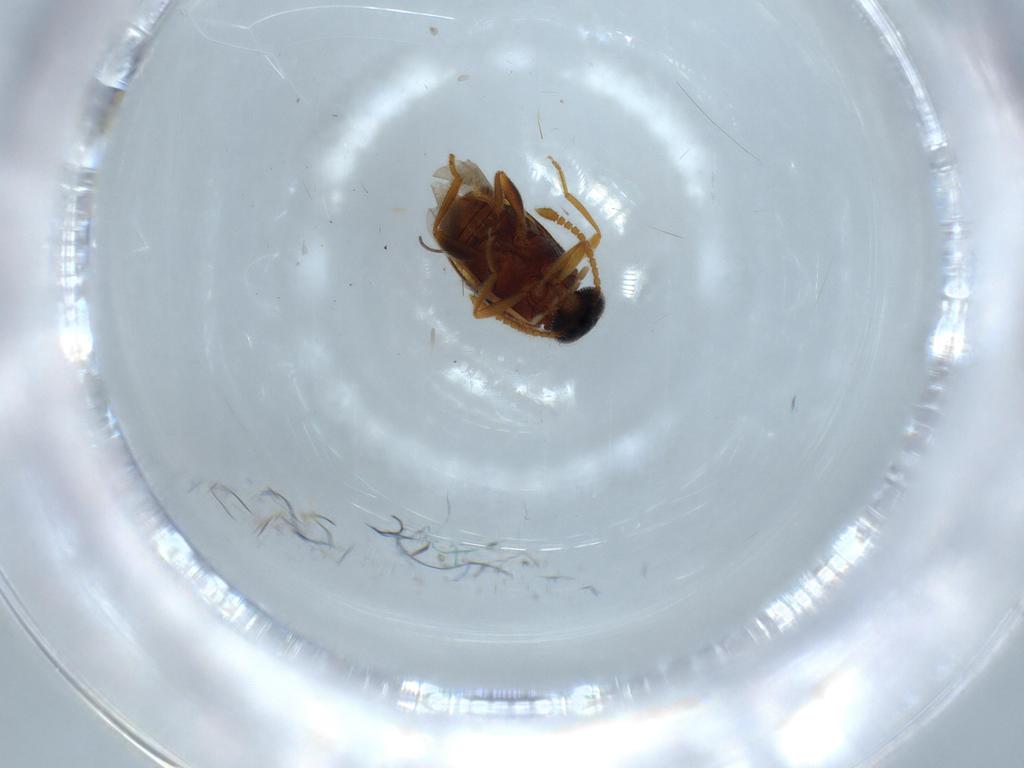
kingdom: Animalia
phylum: Arthropoda
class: Insecta
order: Coleoptera
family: Aderidae
